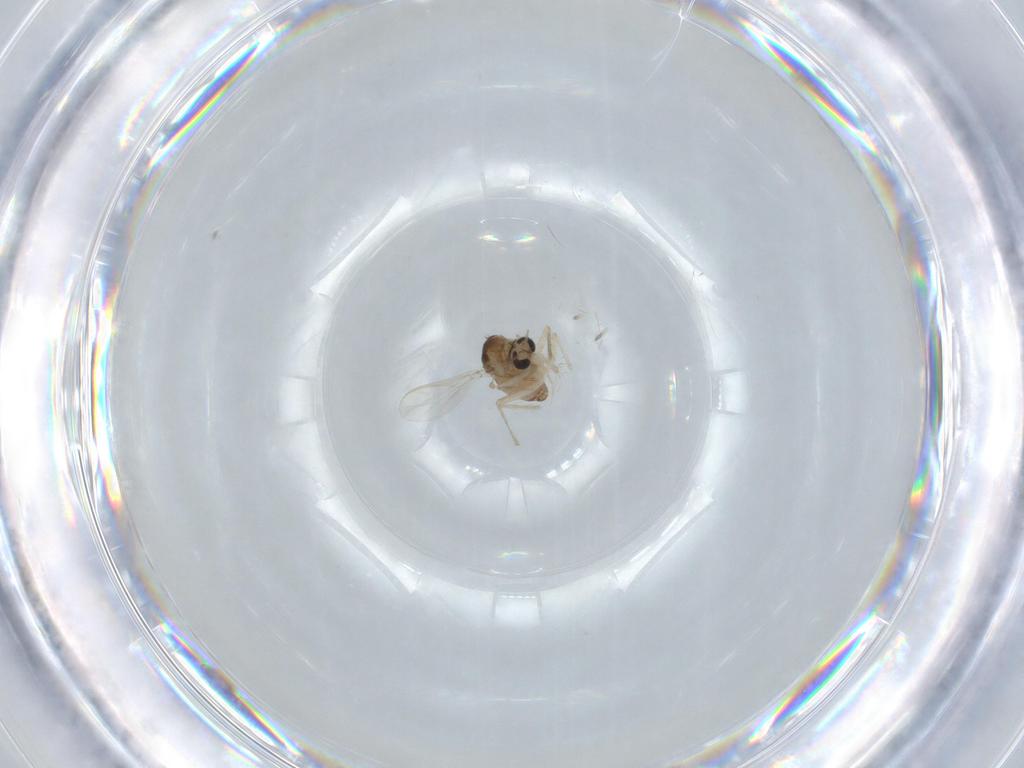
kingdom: Animalia
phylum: Arthropoda
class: Insecta
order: Diptera
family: Chironomidae
